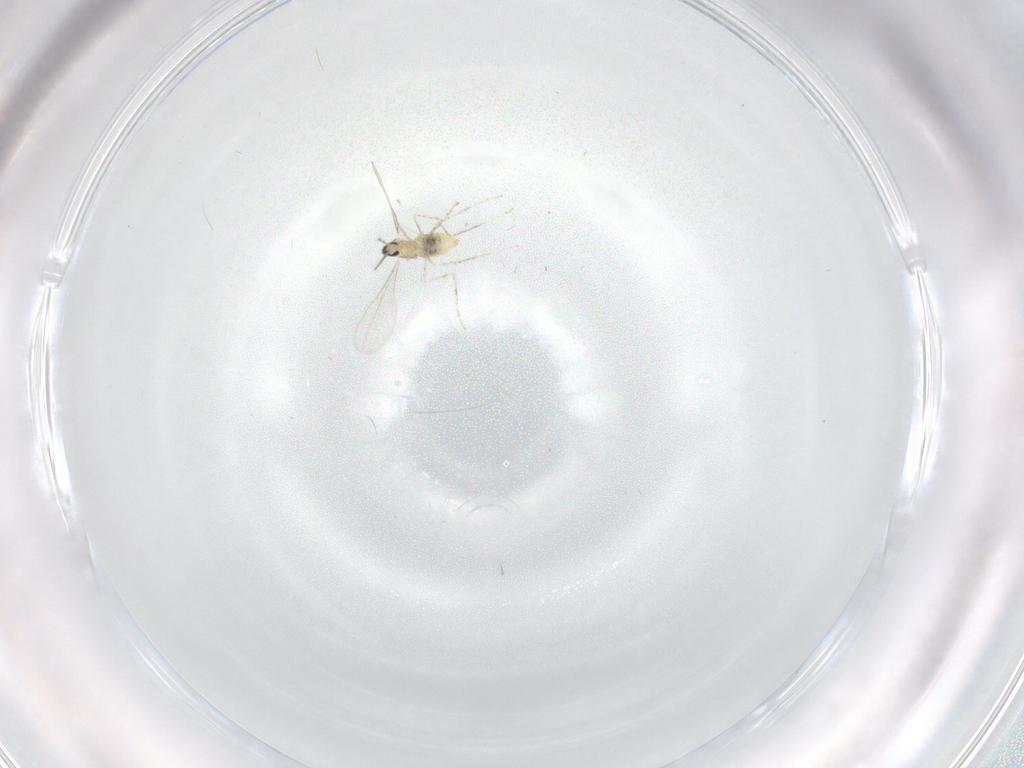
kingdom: Animalia
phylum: Arthropoda
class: Insecta
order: Diptera
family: Cecidomyiidae
